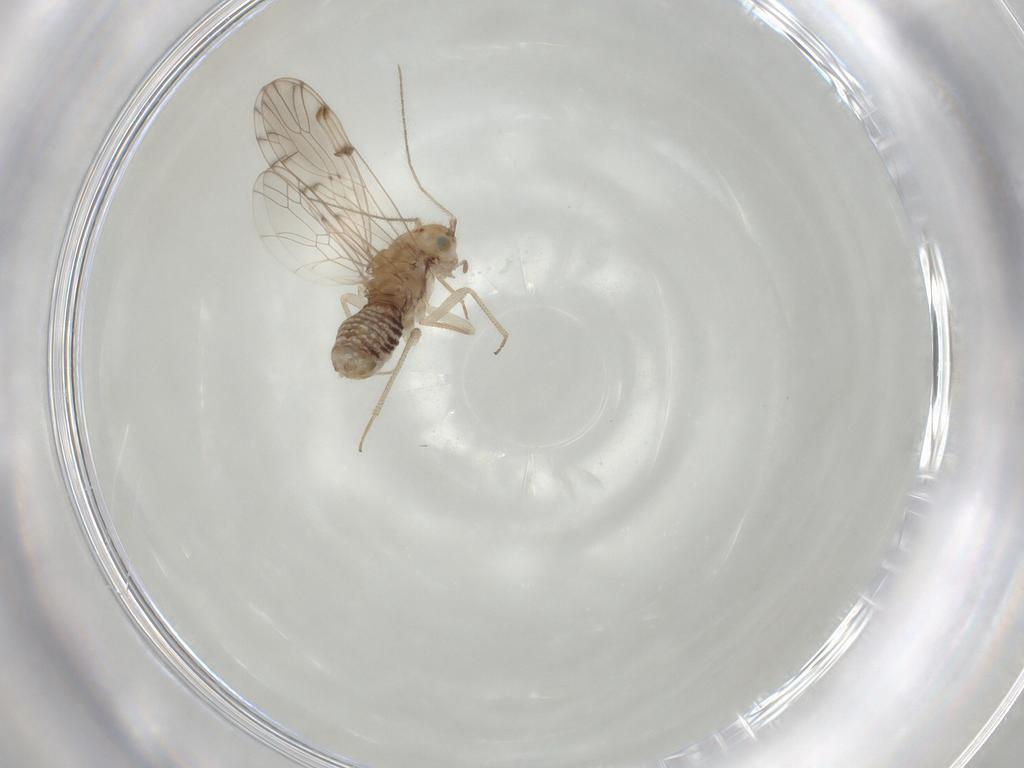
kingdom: Animalia
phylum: Arthropoda
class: Insecta
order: Psocodea
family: Ectopsocidae
